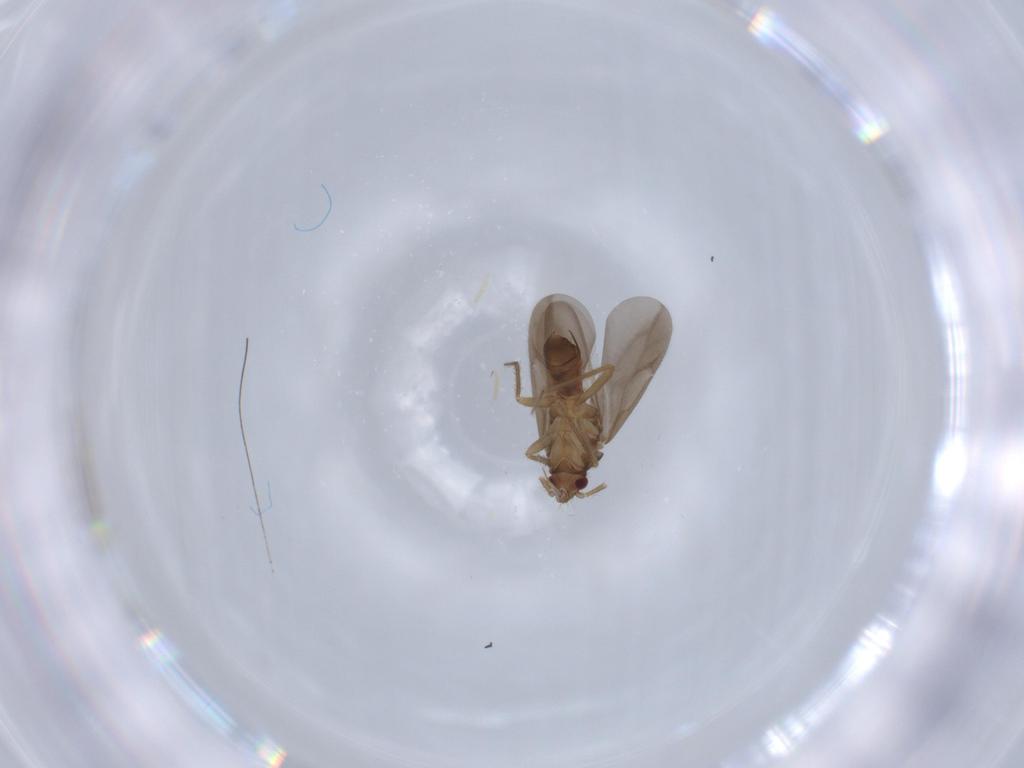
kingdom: Animalia
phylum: Arthropoda
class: Insecta
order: Hemiptera
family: Ceratocombidae
